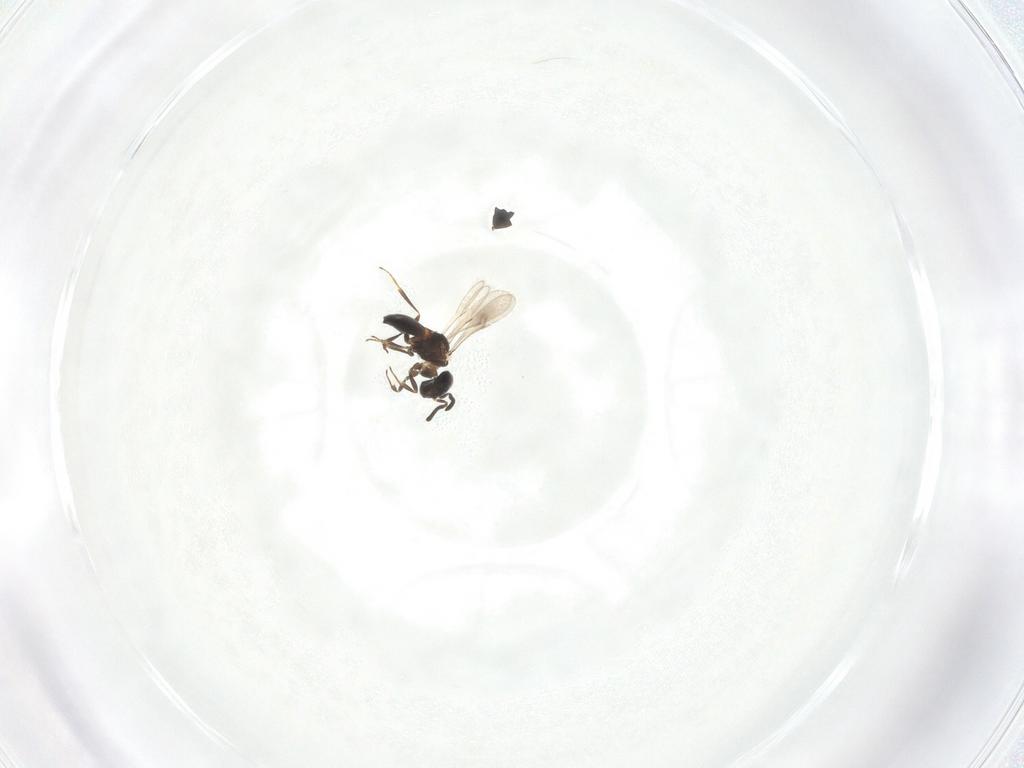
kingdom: Animalia
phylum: Arthropoda
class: Insecta
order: Hymenoptera
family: Scelionidae
